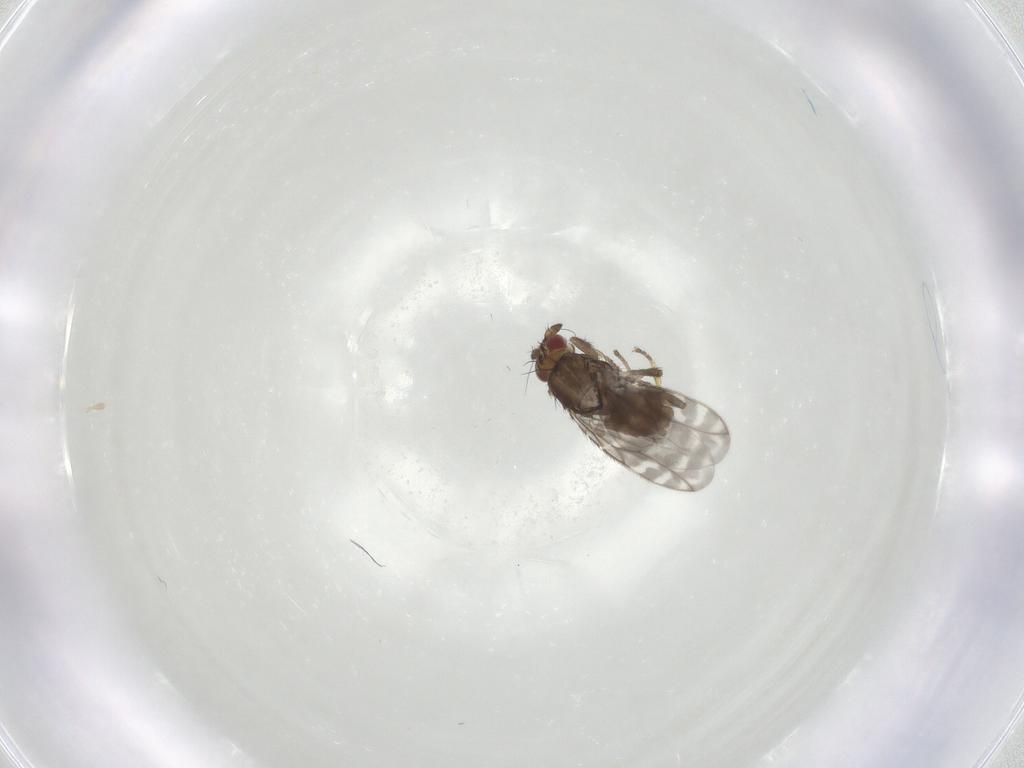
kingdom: Animalia
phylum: Arthropoda
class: Insecta
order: Diptera
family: Sphaeroceridae
